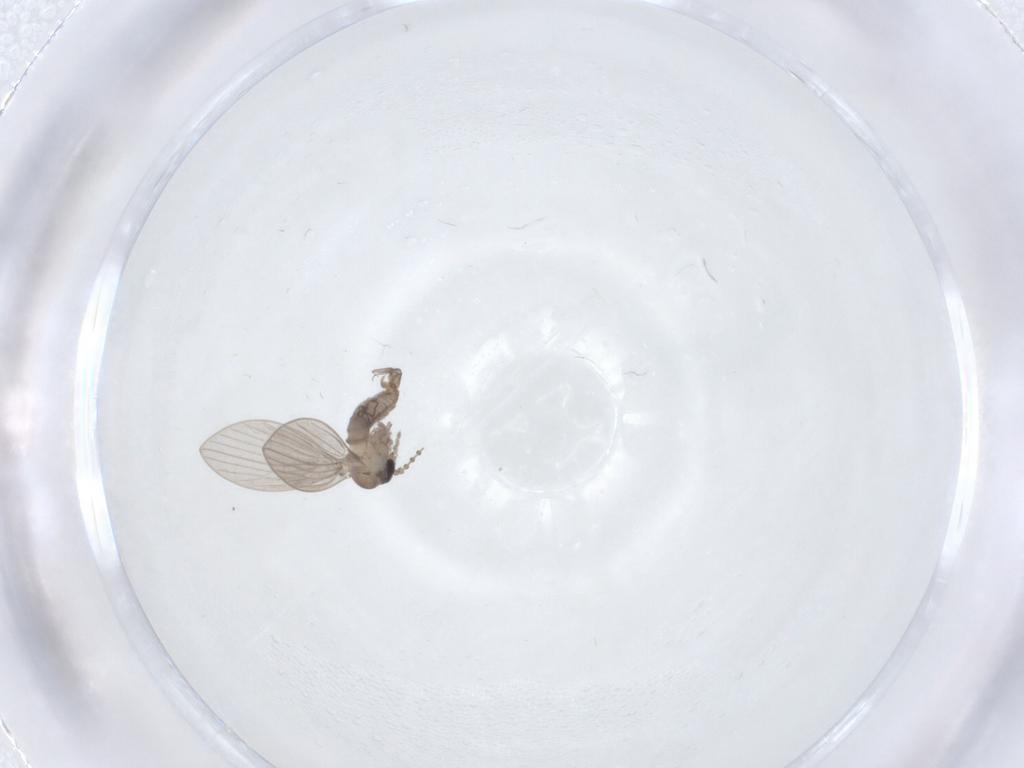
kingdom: Animalia
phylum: Arthropoda
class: Insecta
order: Diptera
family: Psychodidae
